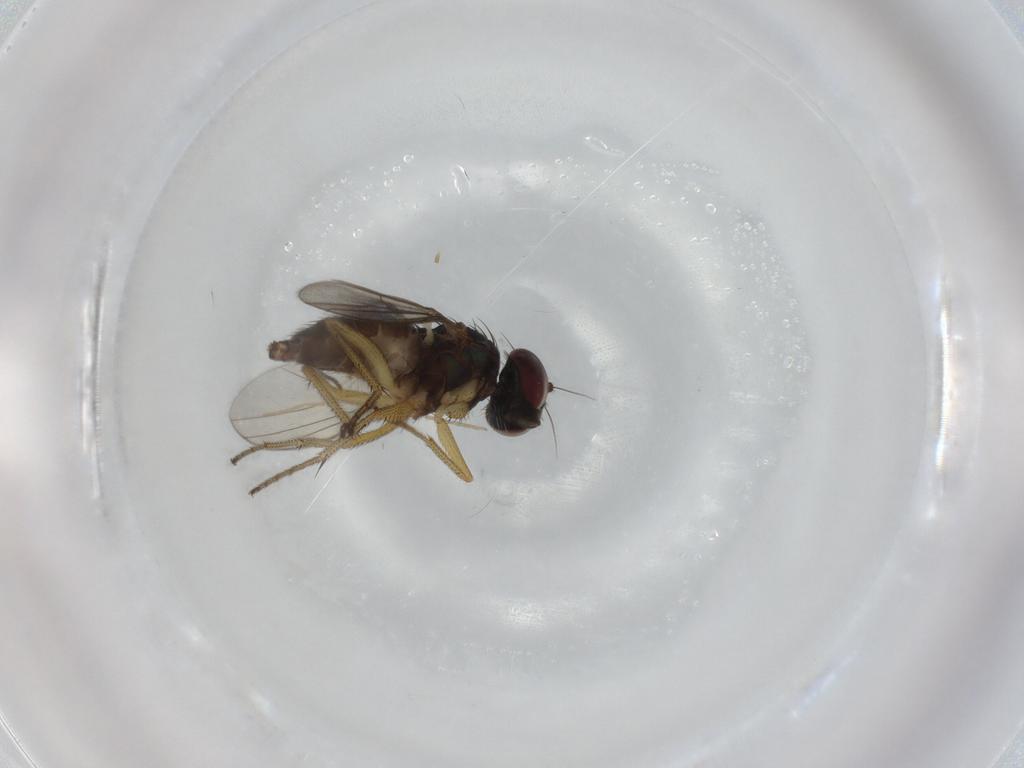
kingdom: Animalia
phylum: Arthropoda
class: Insecta
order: Diptera
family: Sciaridae
